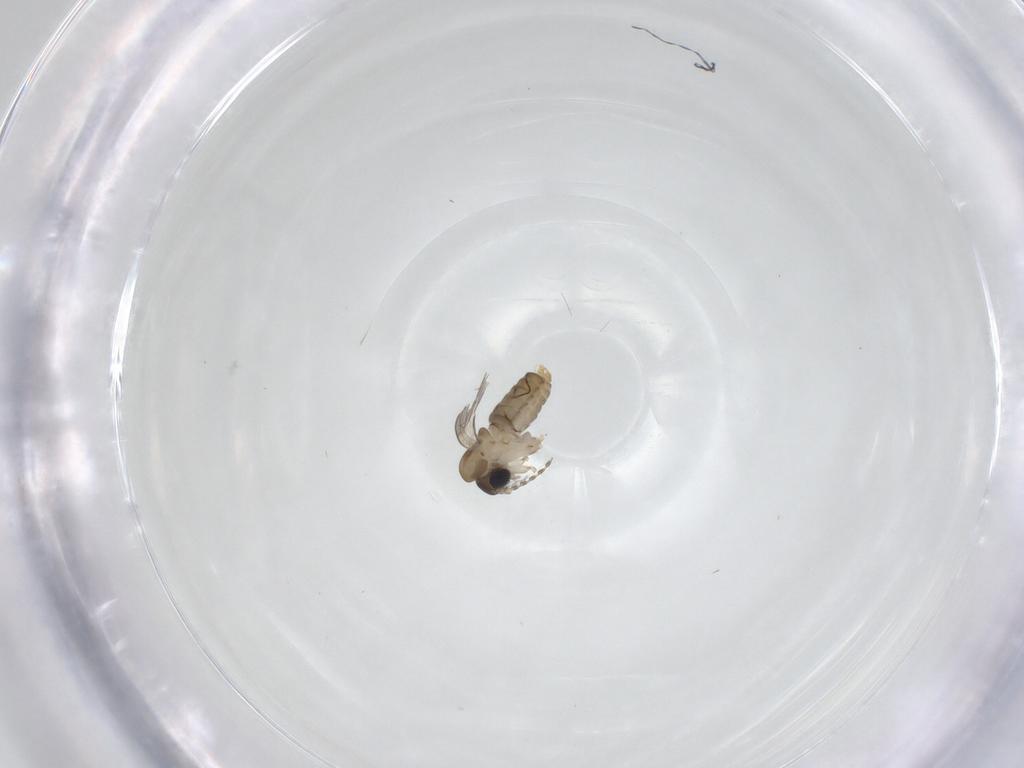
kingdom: Animalia
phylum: Arthropoda
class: Insecta
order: Diptera
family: Psychodidae
